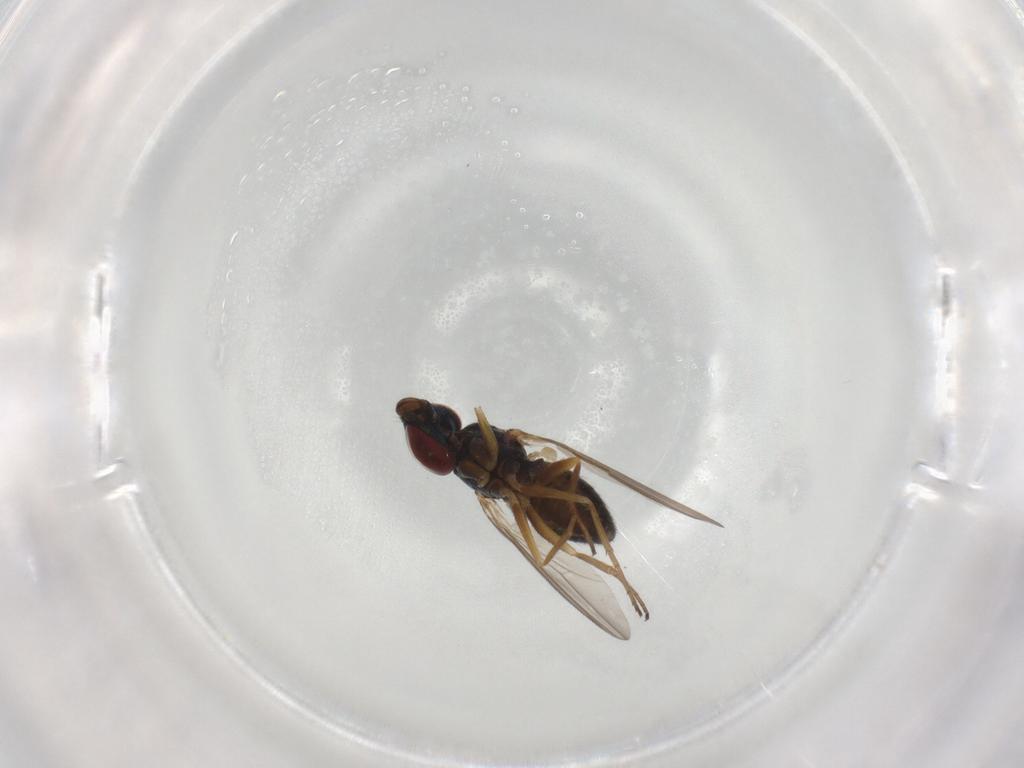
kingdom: Animalia
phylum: Arthropoda
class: Insecta
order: Diptera
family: Dolichopodidae
